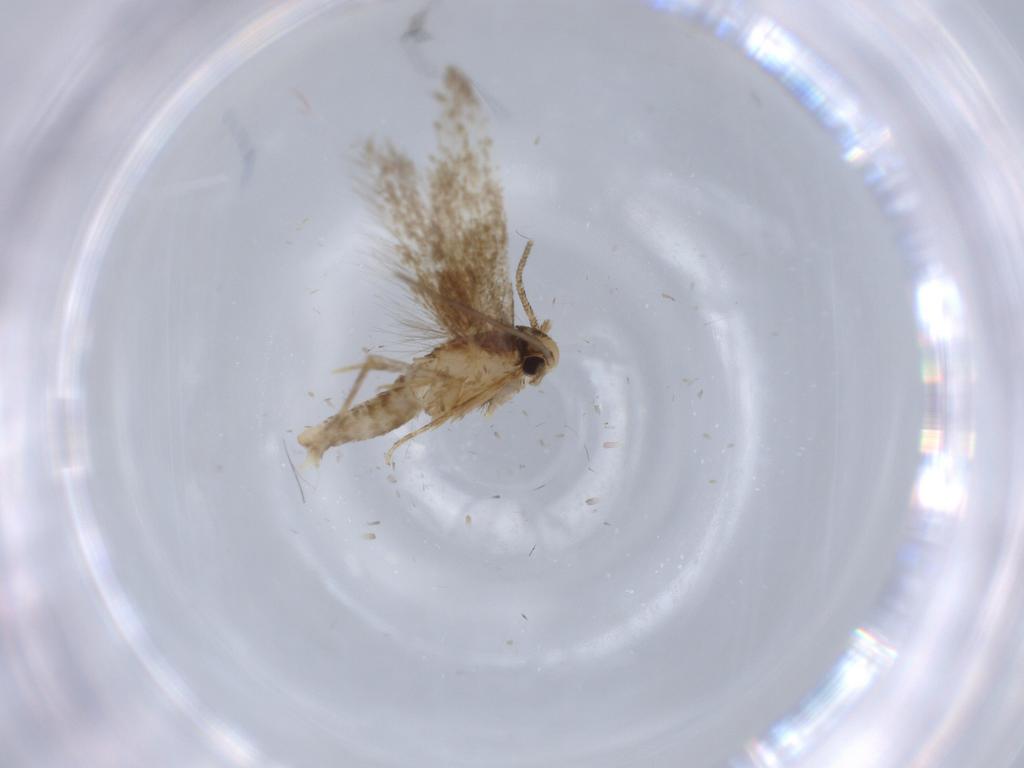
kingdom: Animalia
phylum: Arthropoda
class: Insecta
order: Lepidoptera
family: Tineidae
